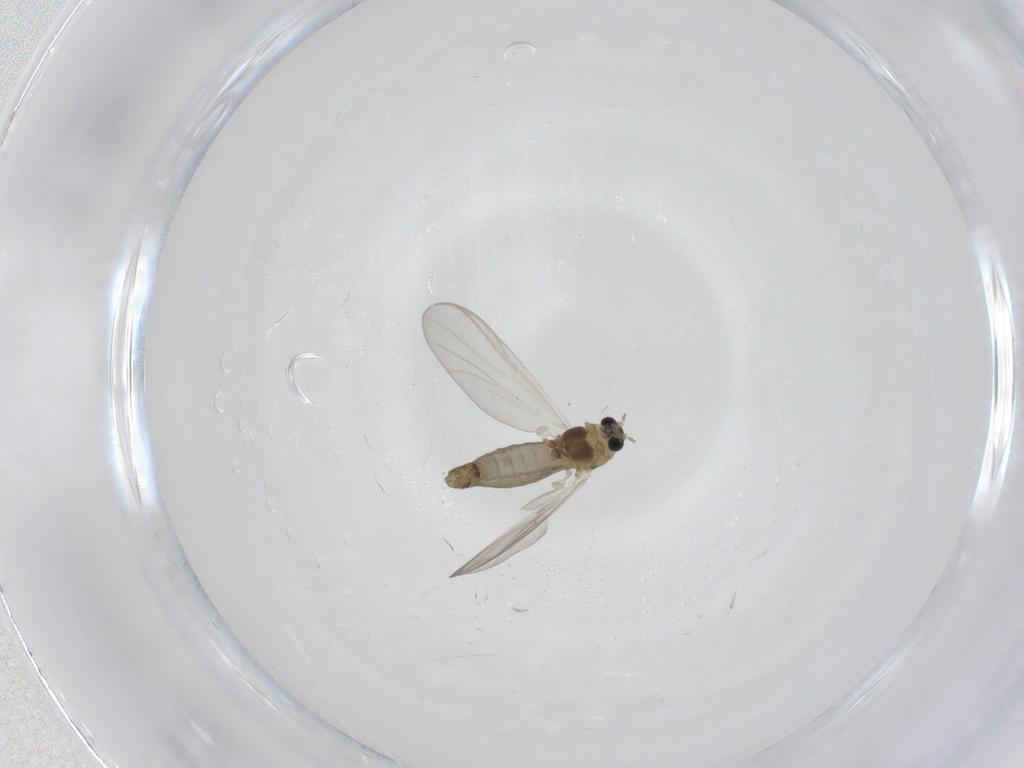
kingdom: Animalia
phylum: Arthropoda
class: Insecta
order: Diptera
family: Chironomidae
